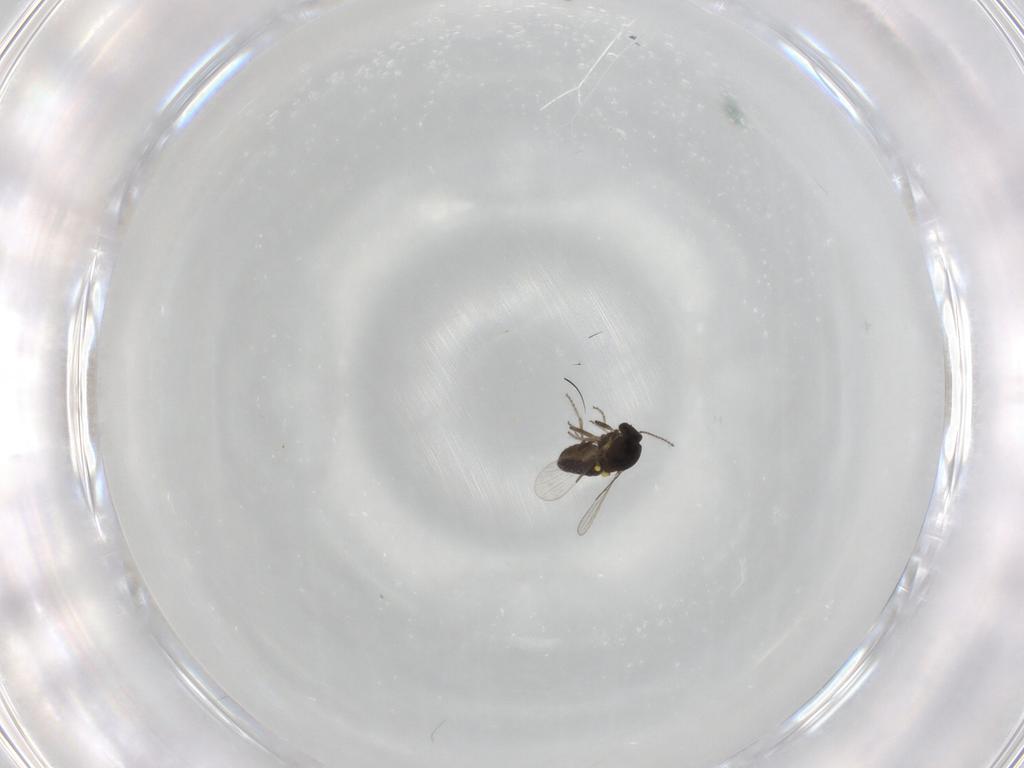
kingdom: Animalia
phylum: Arthropoda
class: Insecta
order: Diptera
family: Ceratopogonidae
